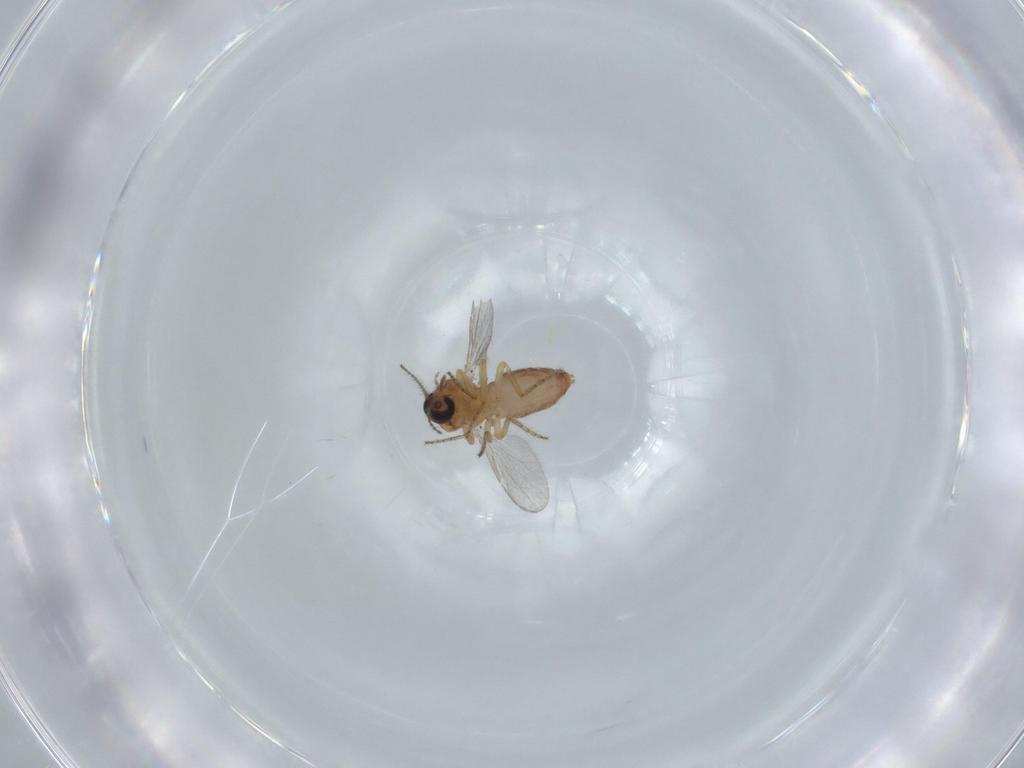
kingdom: Animalia
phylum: Arthropoda
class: Insecta
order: Diptera
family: Ceratopogonidae
